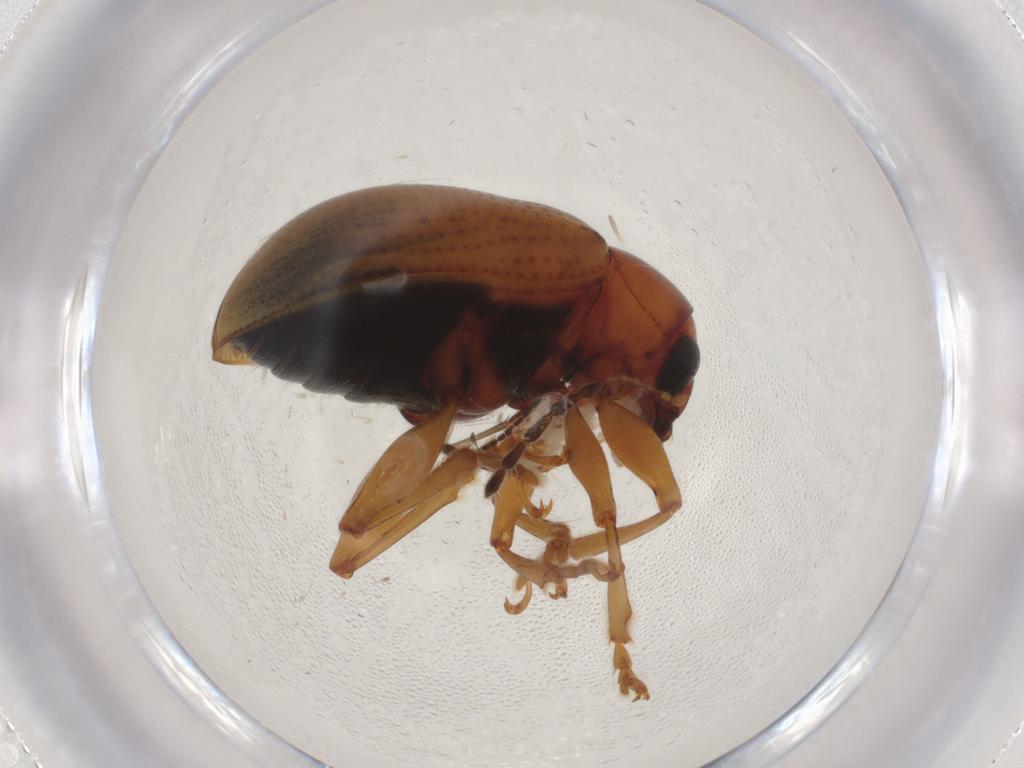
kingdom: Animalia
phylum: Arthropoda
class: Insecta
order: Coleoptera
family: Chrysomelidae
